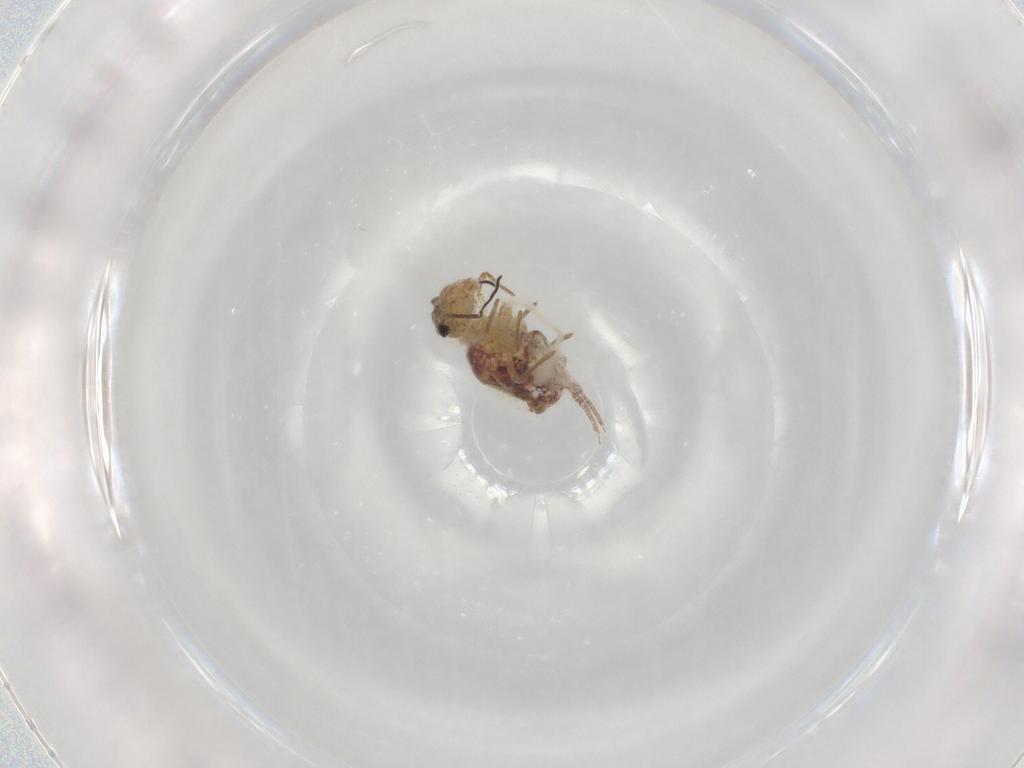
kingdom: Animalia
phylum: Arthropoda
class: Collembola
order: Symphypleona
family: Sminthuridae
